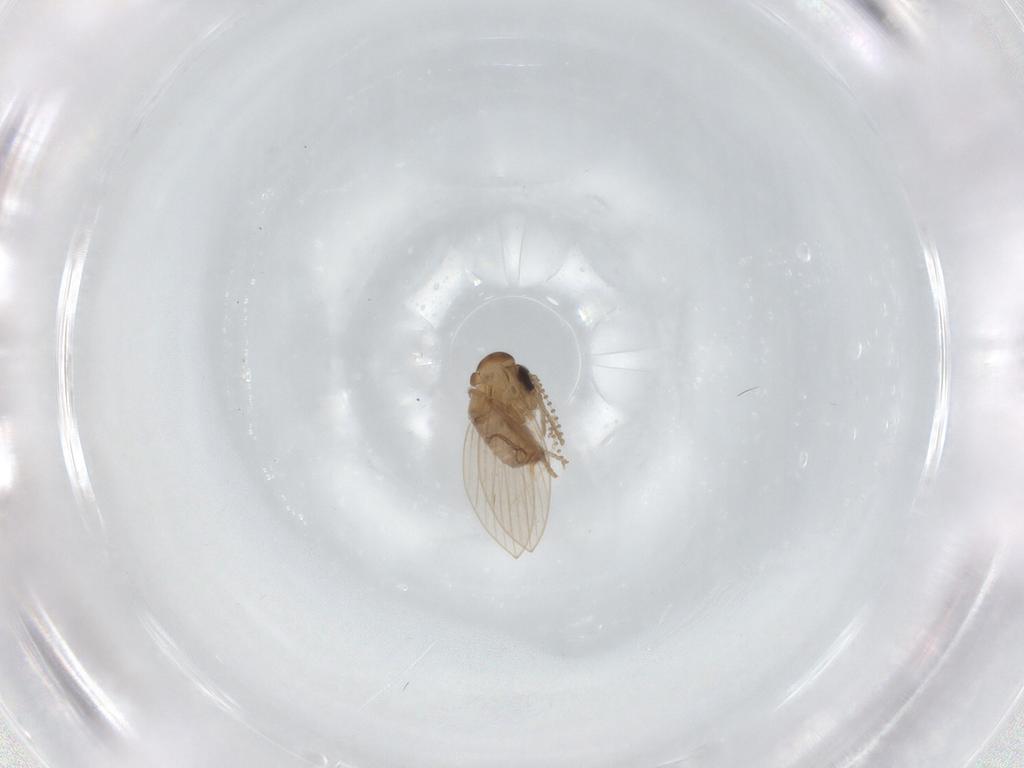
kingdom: Animalia
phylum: Arthropoda
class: Insecta
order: Diptera
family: Psychodidae
